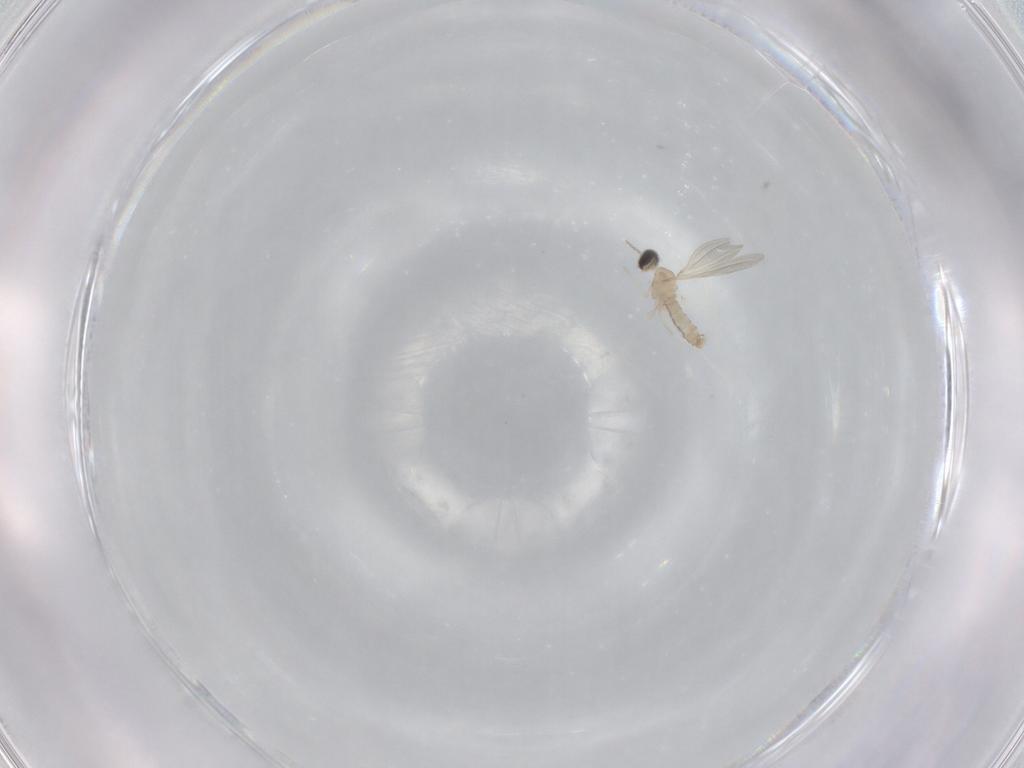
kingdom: Animalia
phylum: Arthropoda
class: Insecta
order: Diptera
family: Cecidomyiidae
